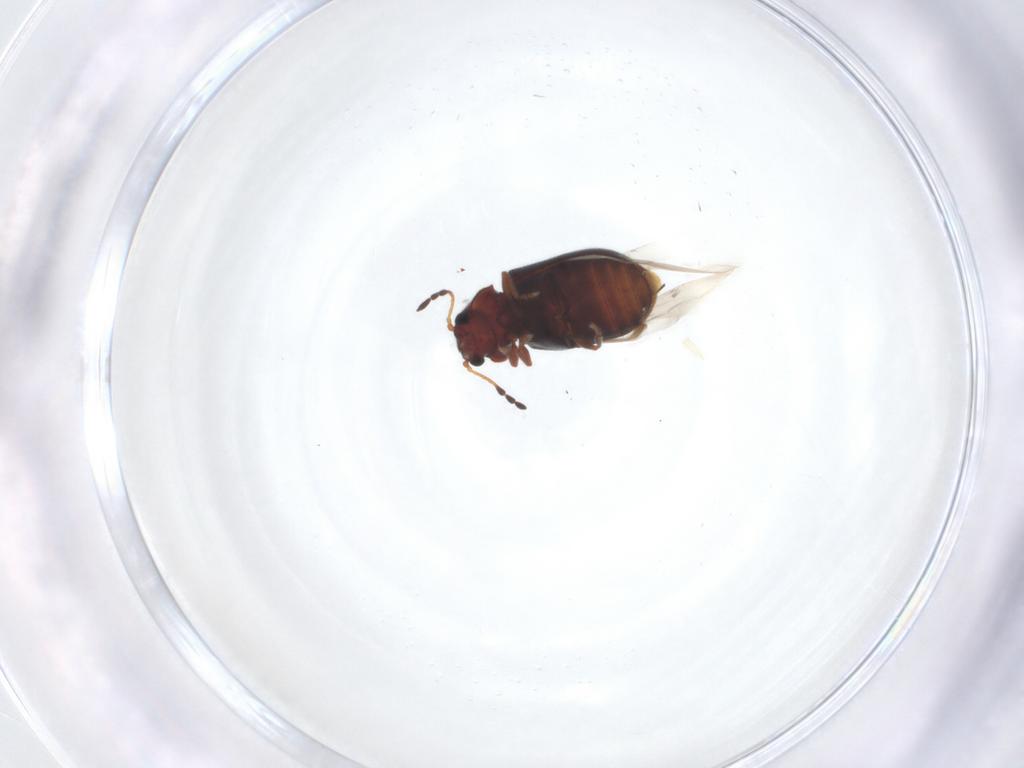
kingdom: Animalia
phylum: Arthropoda
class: Insecta
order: Coleoptera
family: Ptinidae
